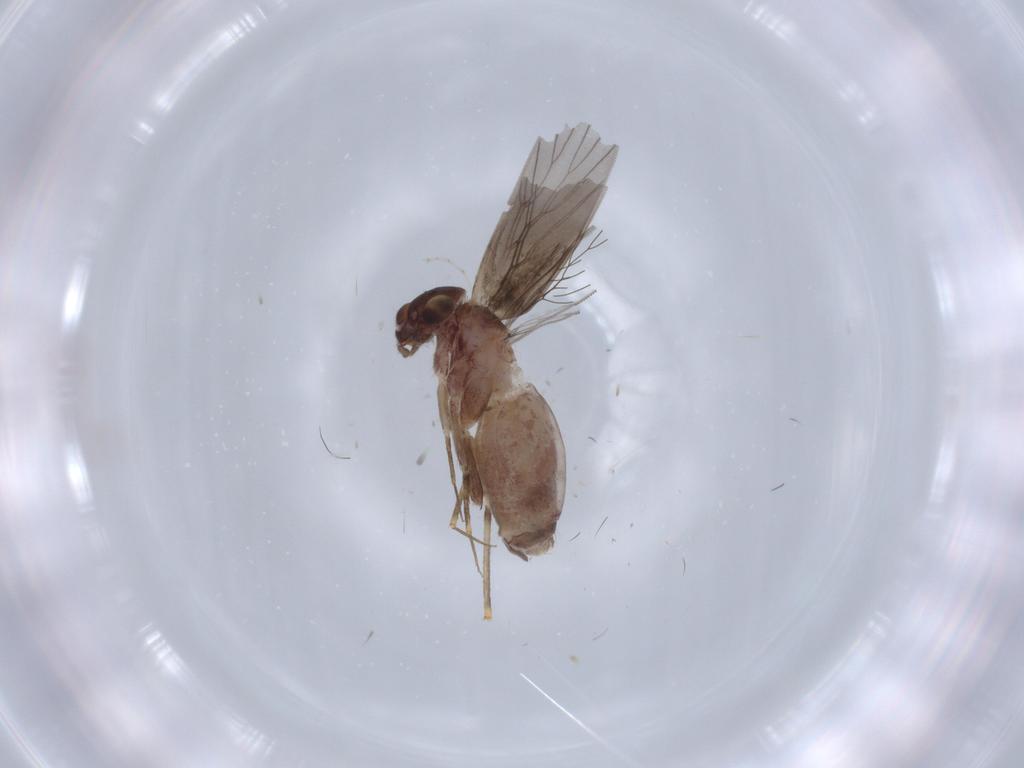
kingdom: Animalia
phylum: Arthropoda
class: Insecta
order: Psocodea
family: Lepidopsocidae
